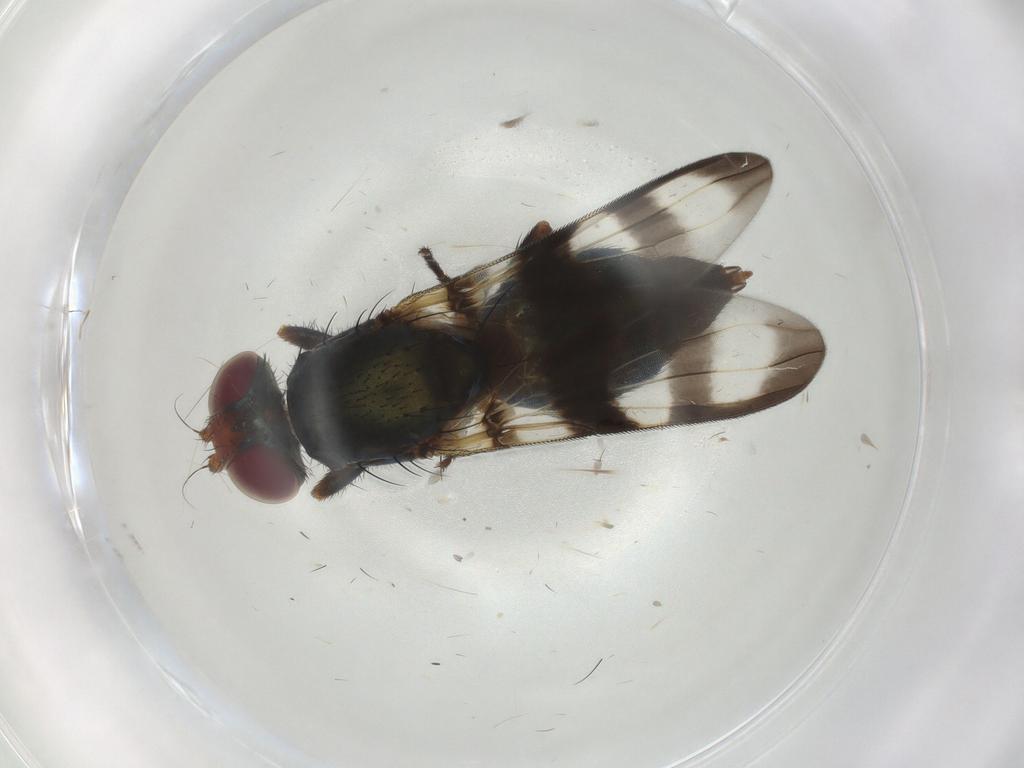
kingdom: Animalia
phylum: Arthropoda
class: Insecta
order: Diptera
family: Ulidiidae
